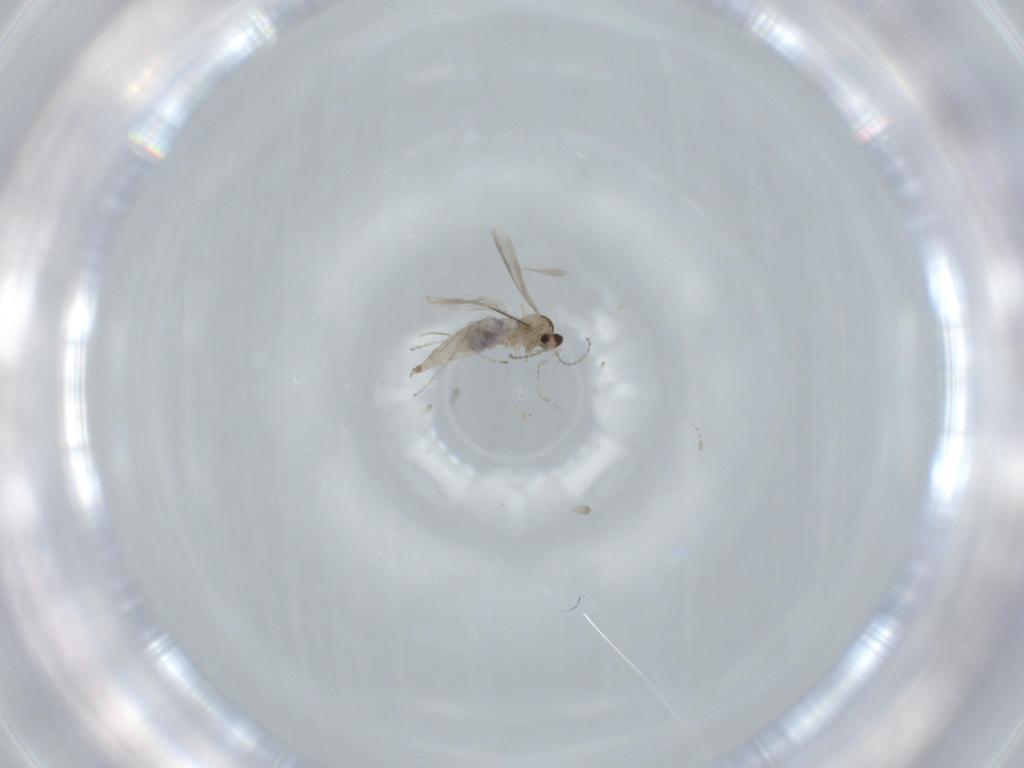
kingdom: Animalia
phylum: Arthropoda
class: Insecta
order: Diptera
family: Cecidomyiidae
